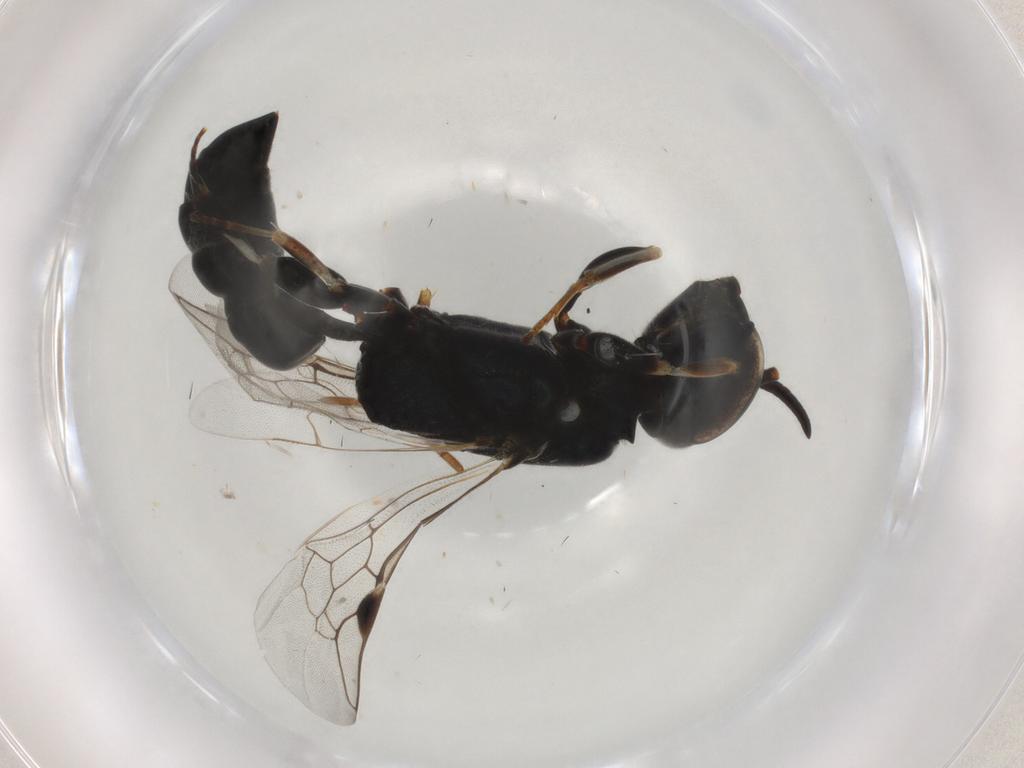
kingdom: Animalia
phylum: Arthropoda
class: Insecta
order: Hymenoptera
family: Pemphredonidae
